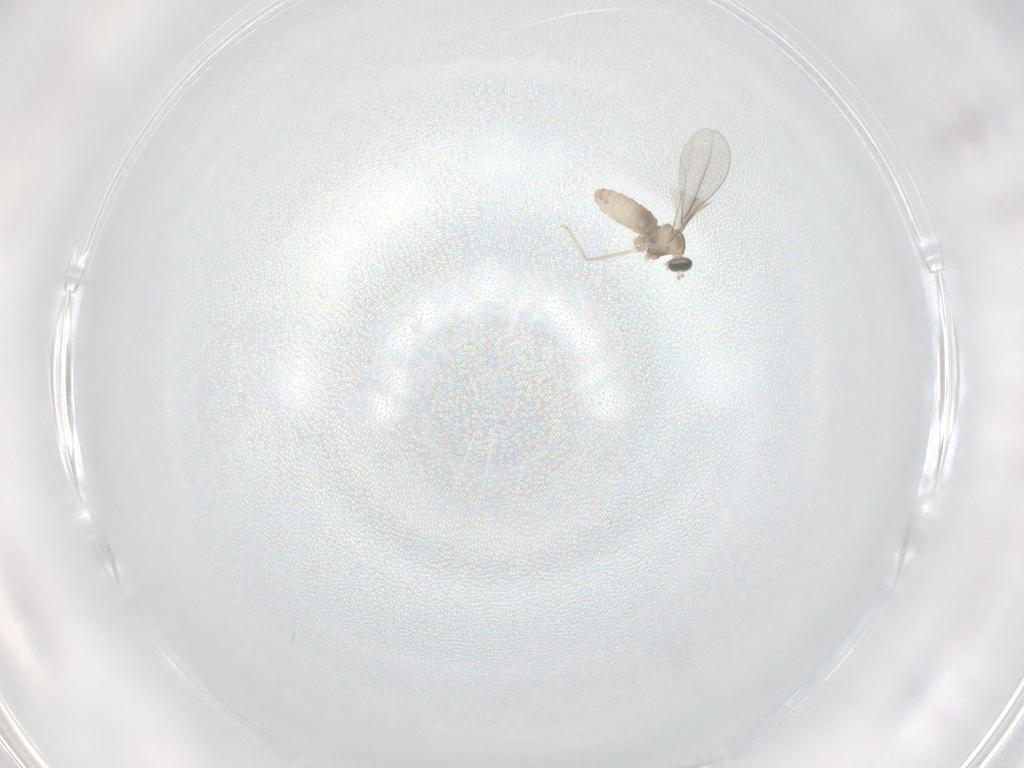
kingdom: Animalia
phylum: Arthropoda
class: Insecta
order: Diptera
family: Cecidomyiidae
